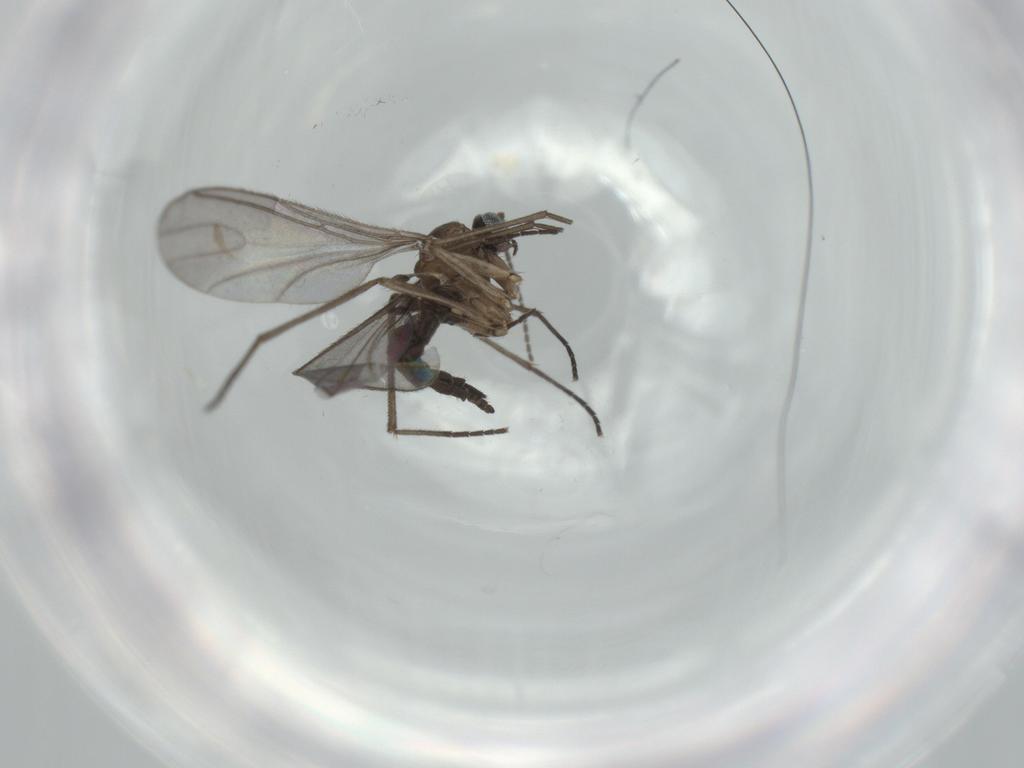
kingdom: Animalia
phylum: Arthropoda
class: Insecta
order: Diptera
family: Sciaridae
